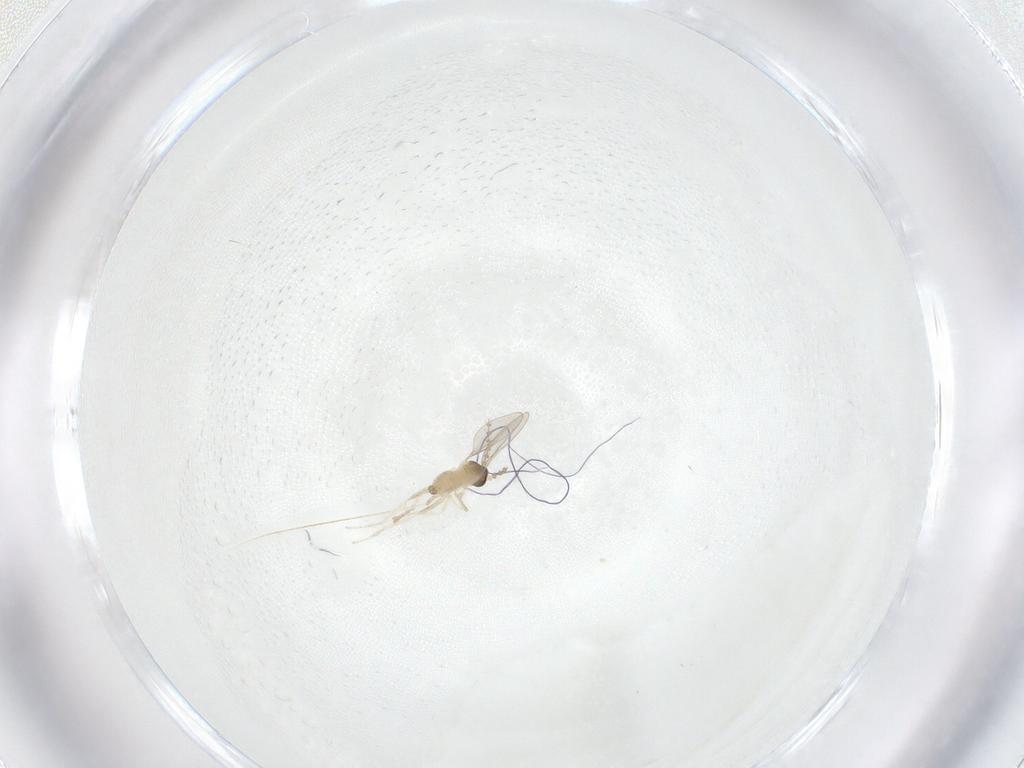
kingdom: Animalia
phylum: Arthropoda
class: Insecta
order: Diptera
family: Cecidomyiidae
